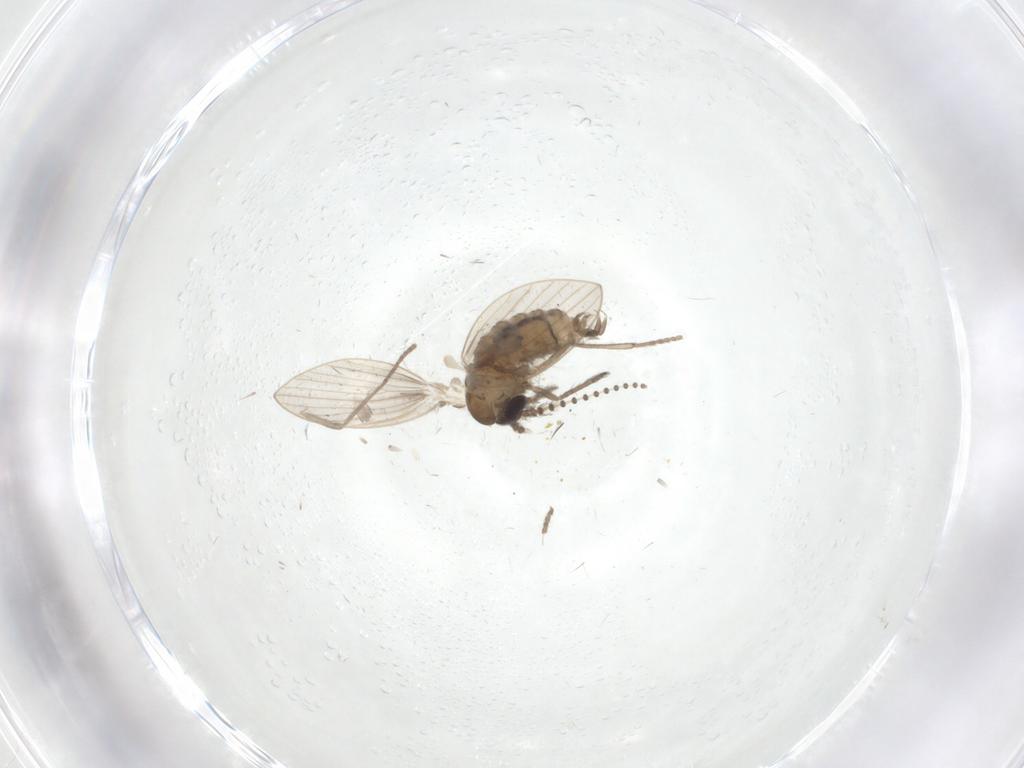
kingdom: Animalia
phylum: Arthropoda
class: Insecta
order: Diptera
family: Drosophilidae
